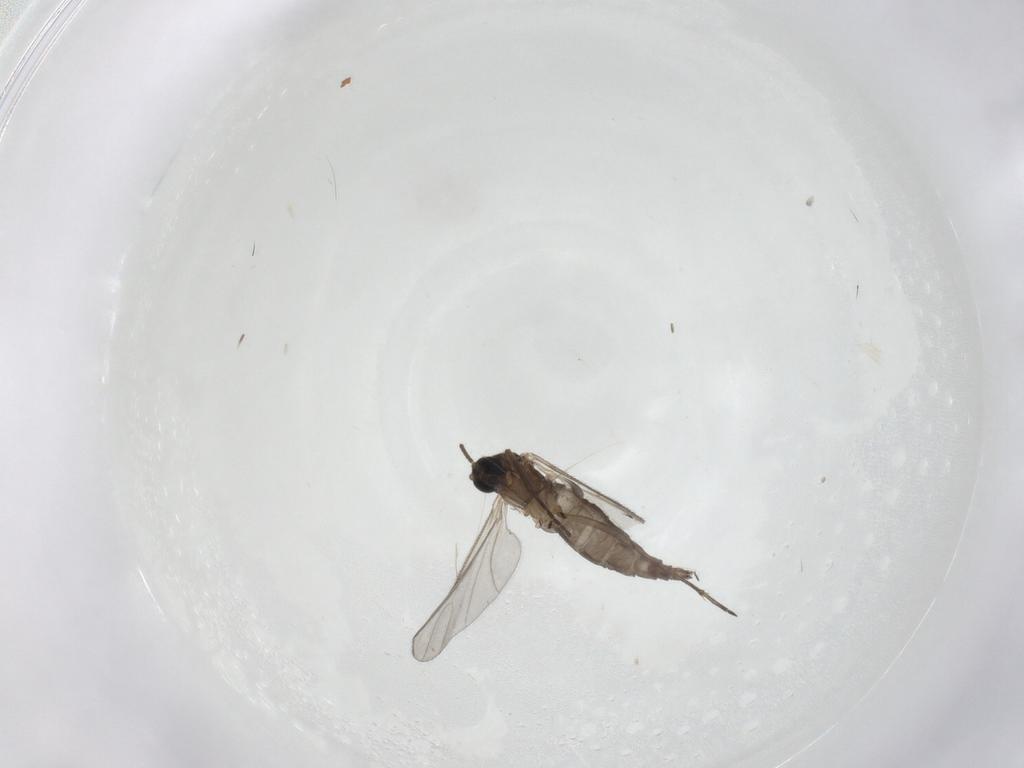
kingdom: Animalia
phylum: Arthropoda
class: Insecta
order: Diptera
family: Sciaridae
